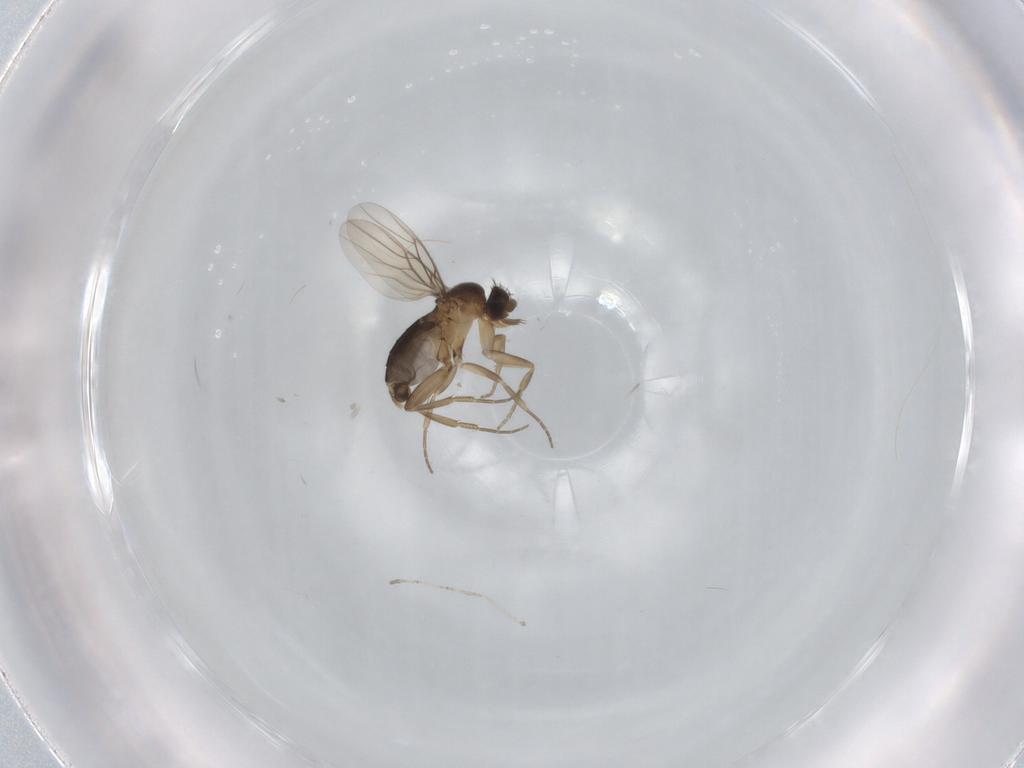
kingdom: Animalia
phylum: Arthropoda
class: Insecta
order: Diptera
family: Phoridae
